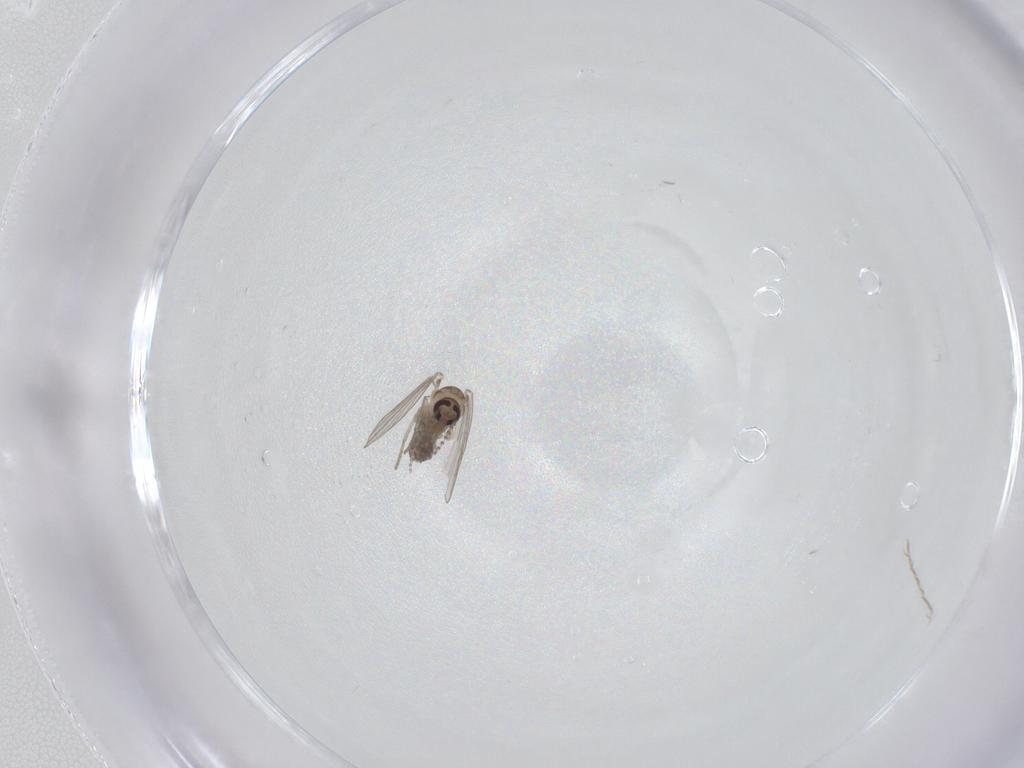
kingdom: Animalia
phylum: Arthropoda
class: Insecta
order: Diptera
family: Psychodidae
